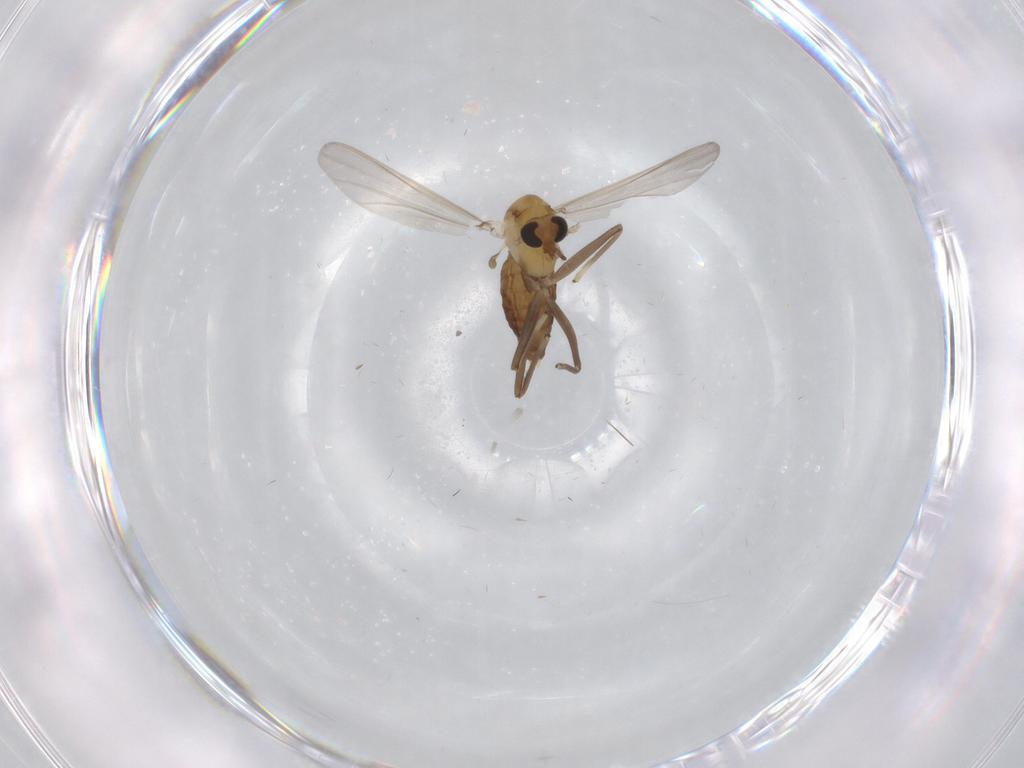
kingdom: Animalia
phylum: Arthropoda
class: Insecta
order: Diptera
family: Chironomidae
